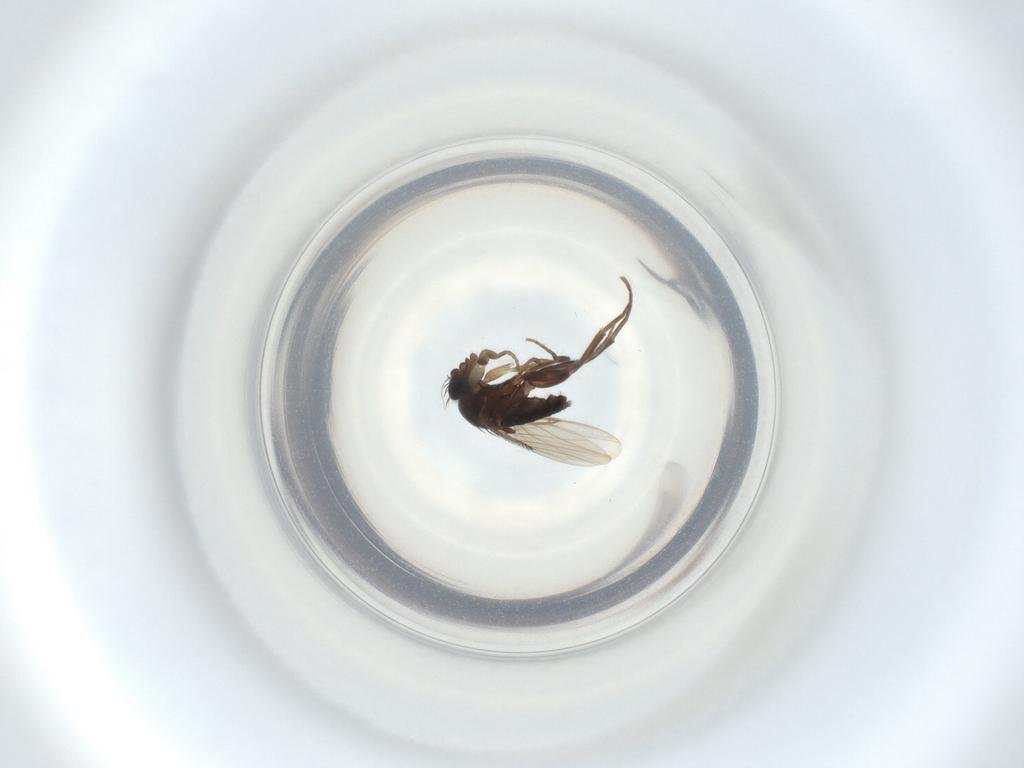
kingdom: Animalia
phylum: Arthropoda
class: Insecta
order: Diptera
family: Phoridae
